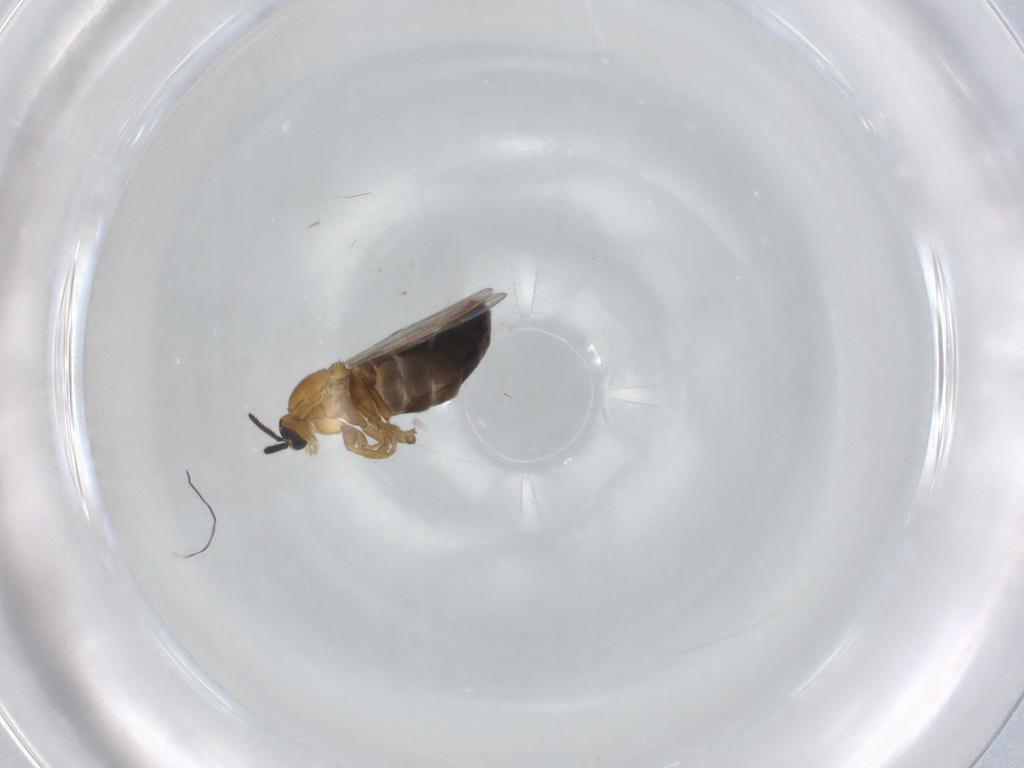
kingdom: Animalia
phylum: Arthropoda
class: Insecta
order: Diptera
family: Scatopsidae
